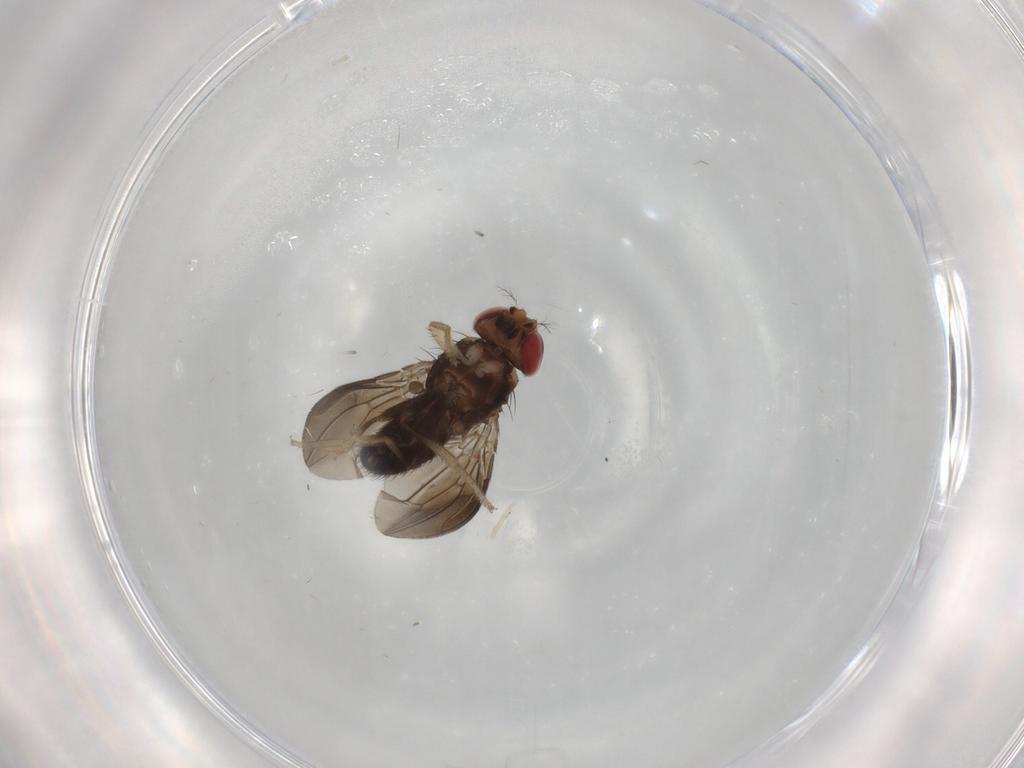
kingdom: Animalia
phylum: Arthropoda
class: Insecta
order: Diptera
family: Drosophilidae
